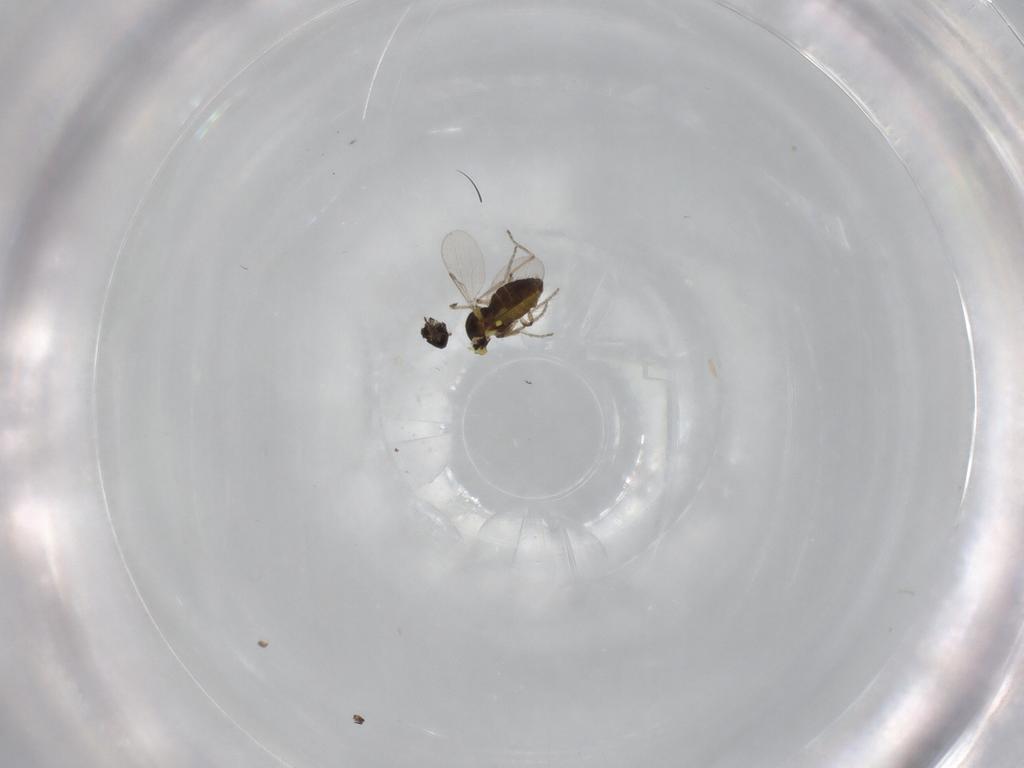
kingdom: Animalia
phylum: Arthropoda
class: Insecta
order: Diptera
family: Ceratopogonidae
